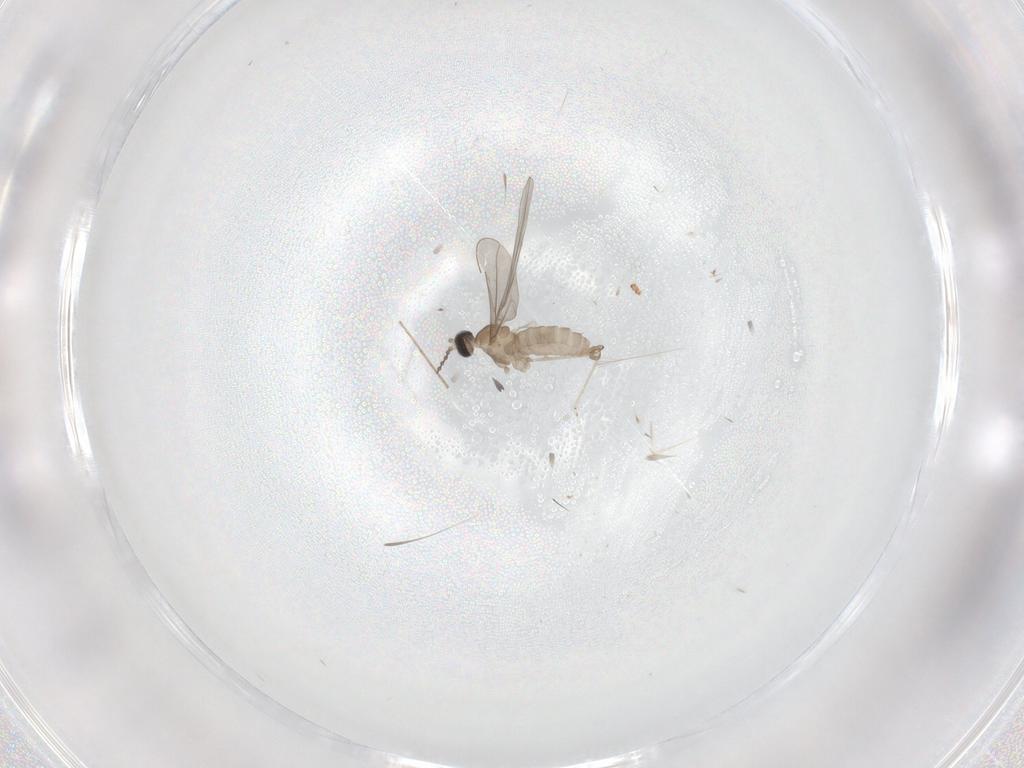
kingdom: Animalia
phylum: Arthropoda
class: Insecta
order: Diptera
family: Cecidomyiidae
